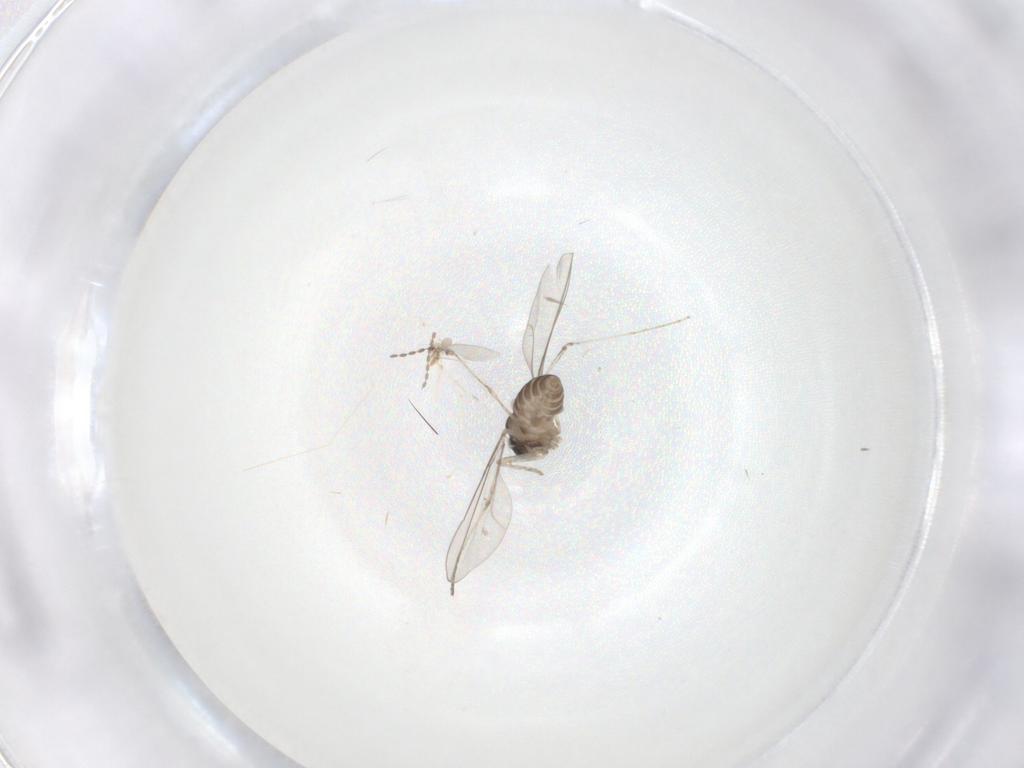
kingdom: Animalia
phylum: Arthropoda
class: Insecta
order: Diptera
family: Cecidomyiidae
